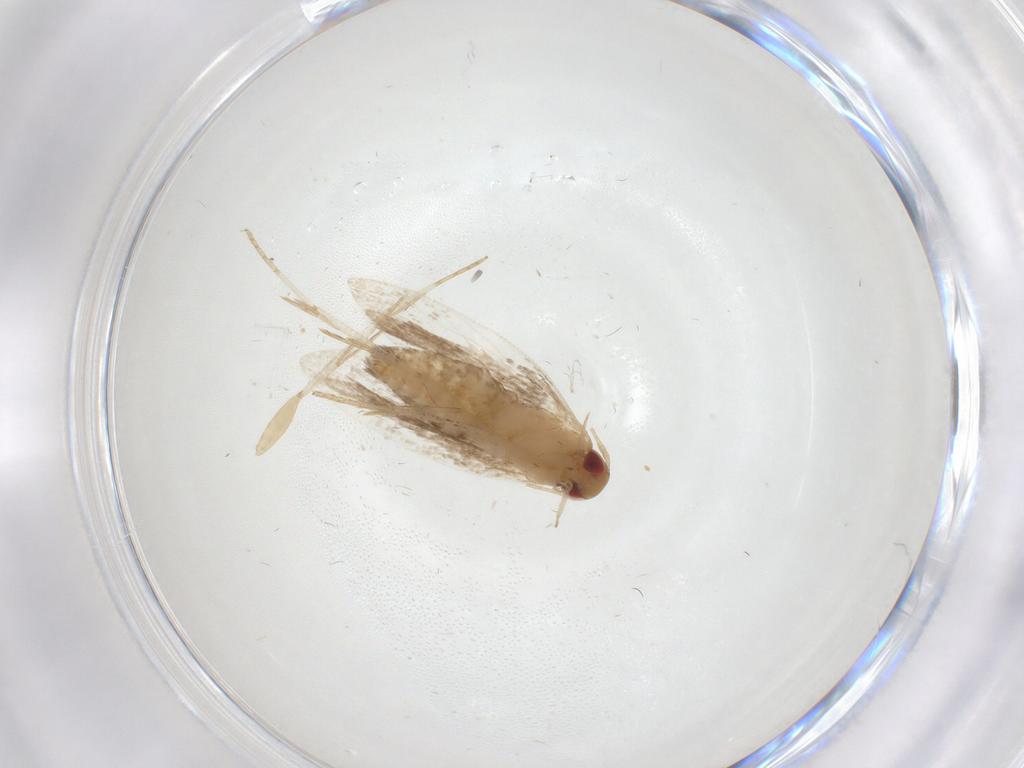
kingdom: Animalia
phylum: Arthropoda
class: Insecta
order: Lepidoptera
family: Gelechiidae
